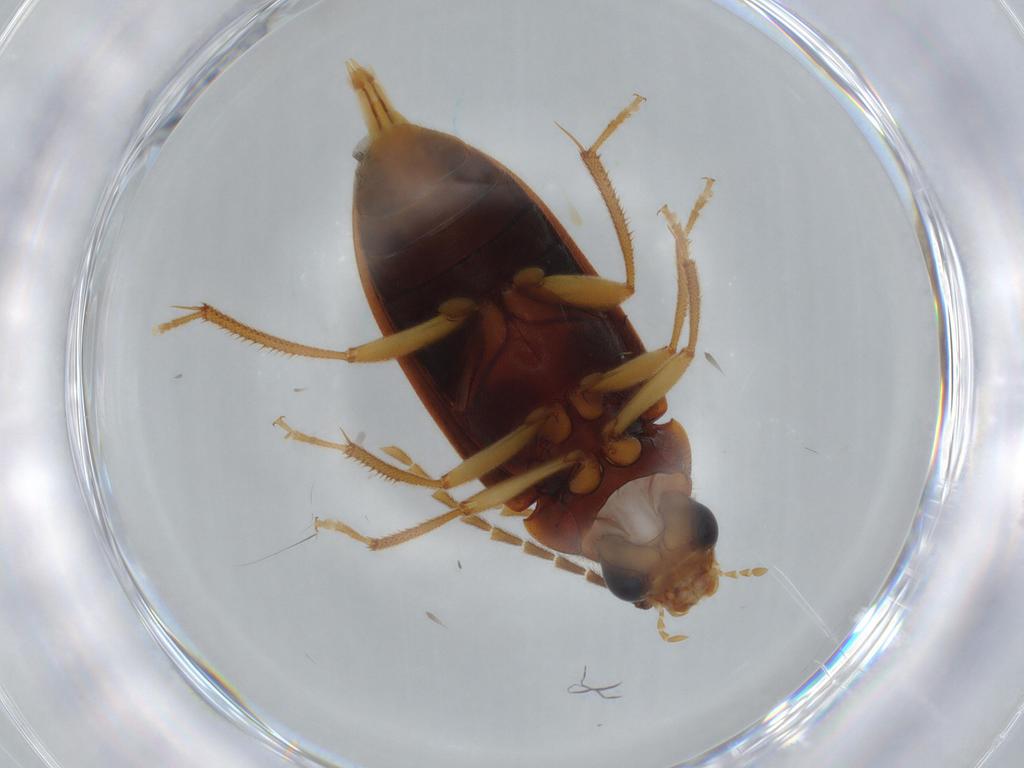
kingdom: Animalia
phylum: Arthropoda
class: Insecta
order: Coleoptera
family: Ptilodactylidae
